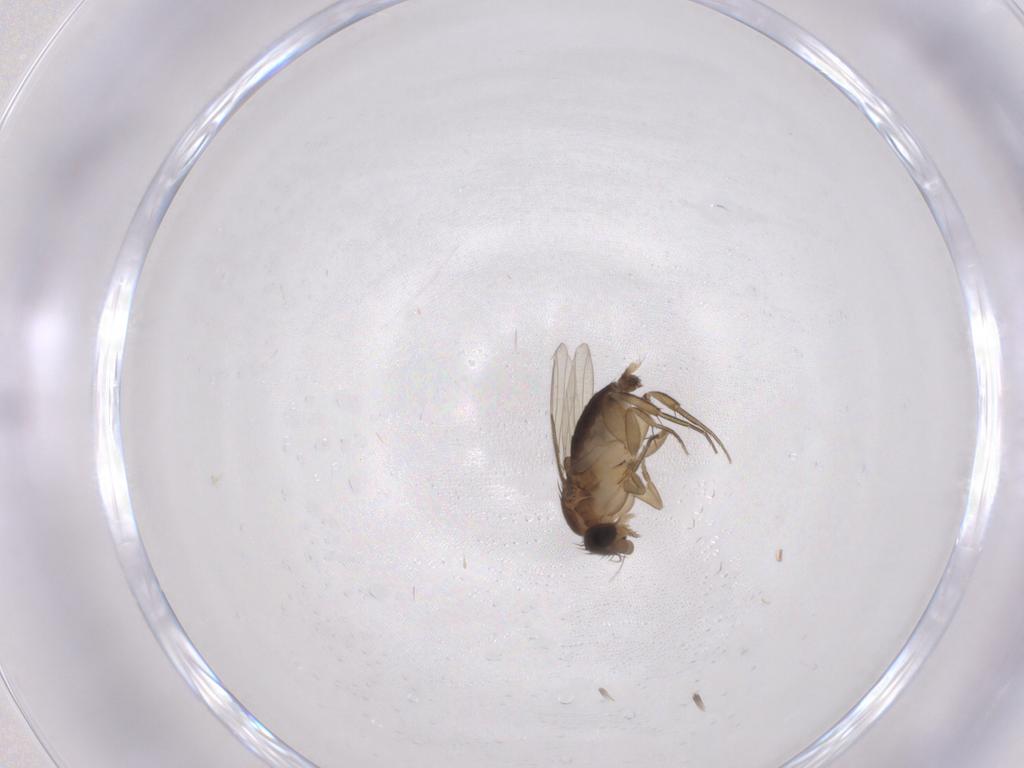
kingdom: Animalia
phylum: Arthropoda
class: Insecta
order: Diptera
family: Phoridae
